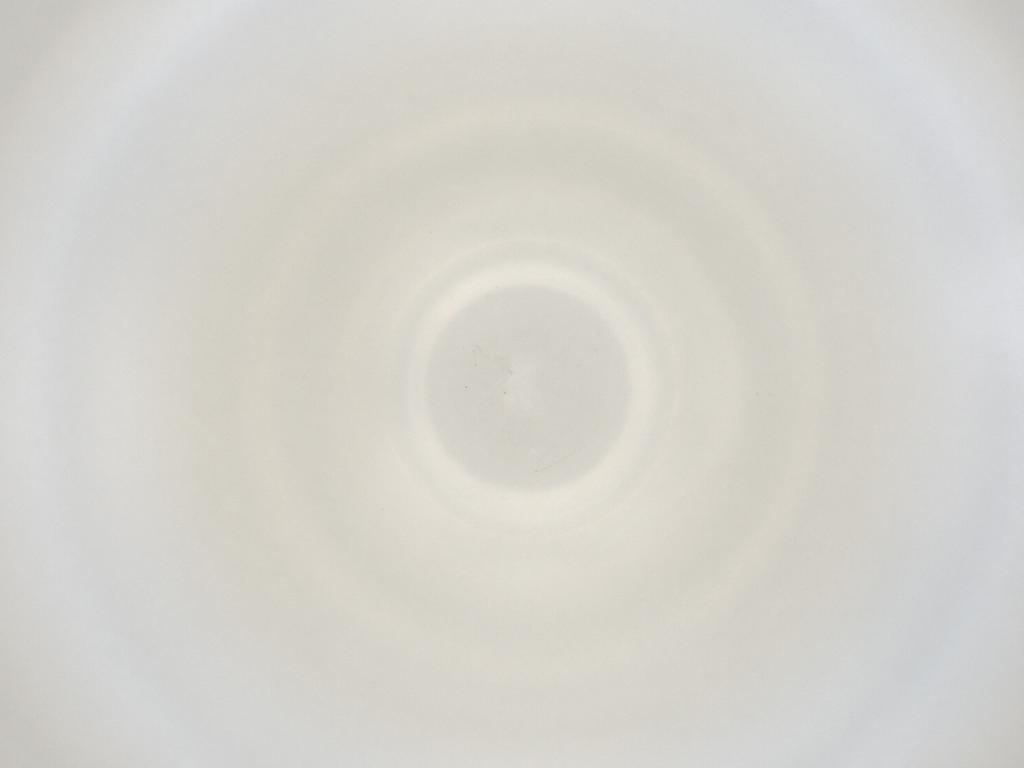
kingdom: Animalia
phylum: Arthropoda
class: Insecta
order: Diptera
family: Cecidomyiidae
